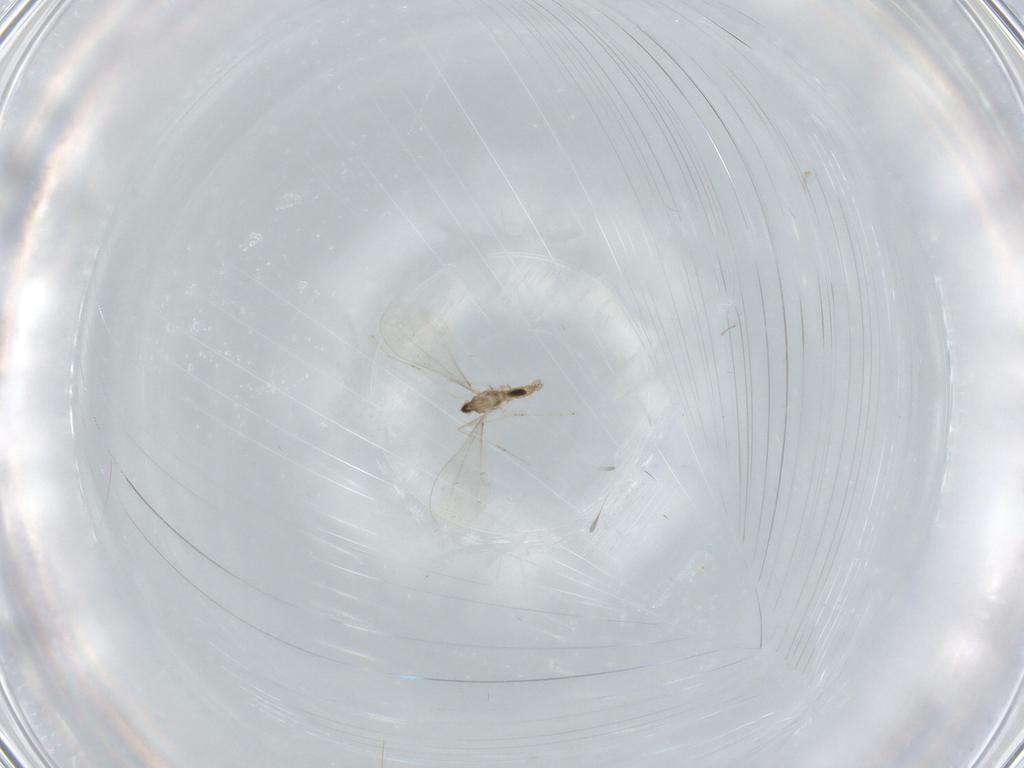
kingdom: Animalia
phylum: Arthropoda
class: Insecta
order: Diptera
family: Cecidomyiidae
